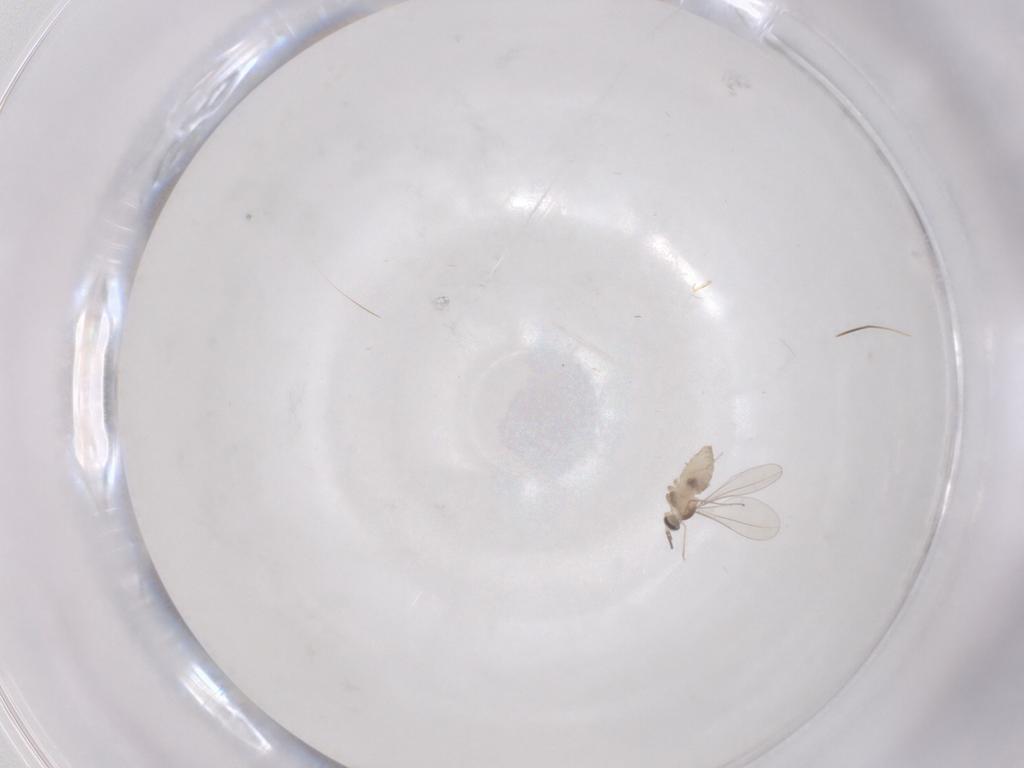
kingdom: Animalia
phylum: Arthropoda
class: Insecta
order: Diptera
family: Cecidomyiidae
